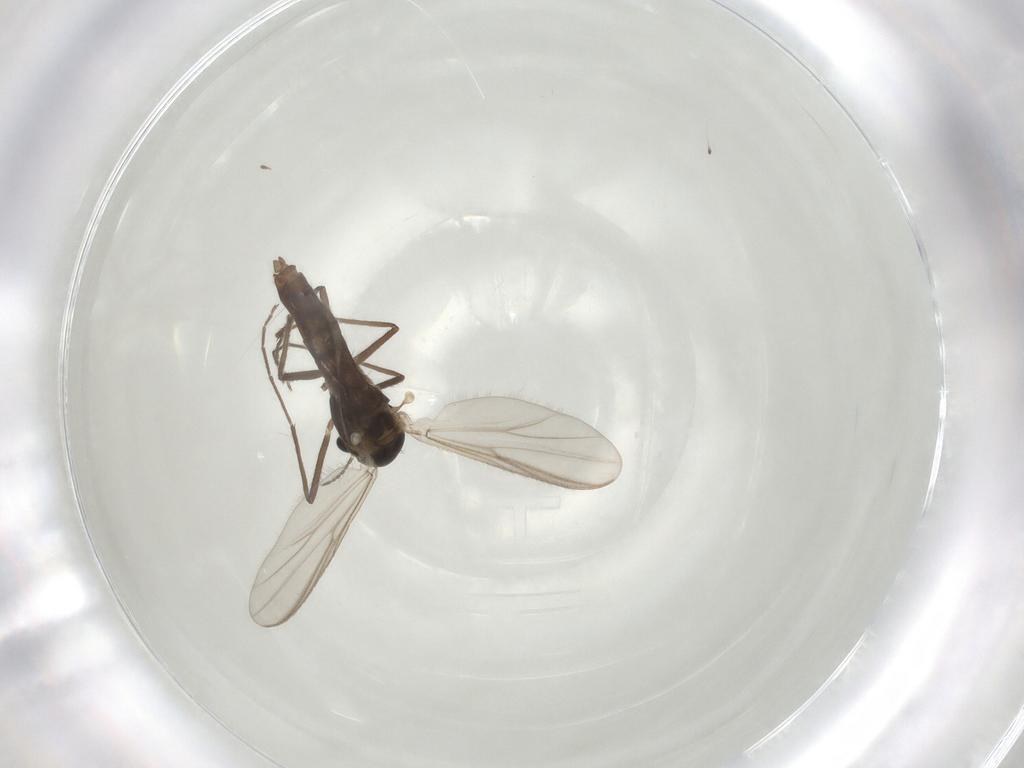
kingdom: Animalia
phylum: Arthropoda
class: Insecta
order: Diptera
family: Chironomidae
